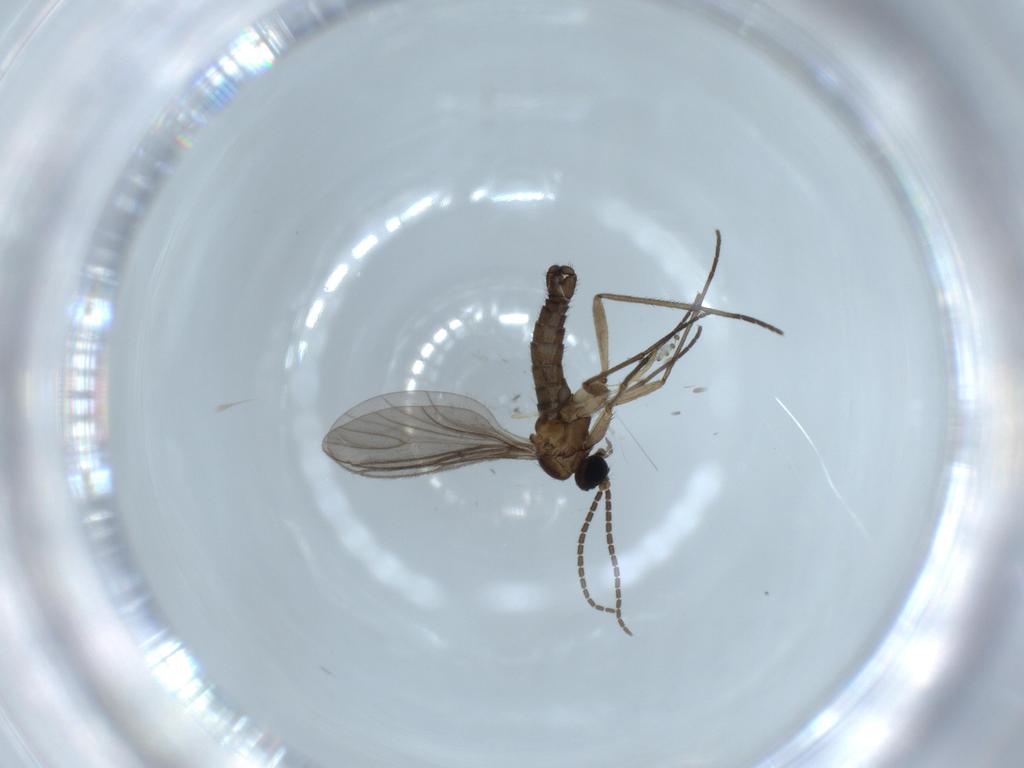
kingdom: Animalia
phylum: Arthropoda
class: Insecta
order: Diptera
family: Sciaridae
